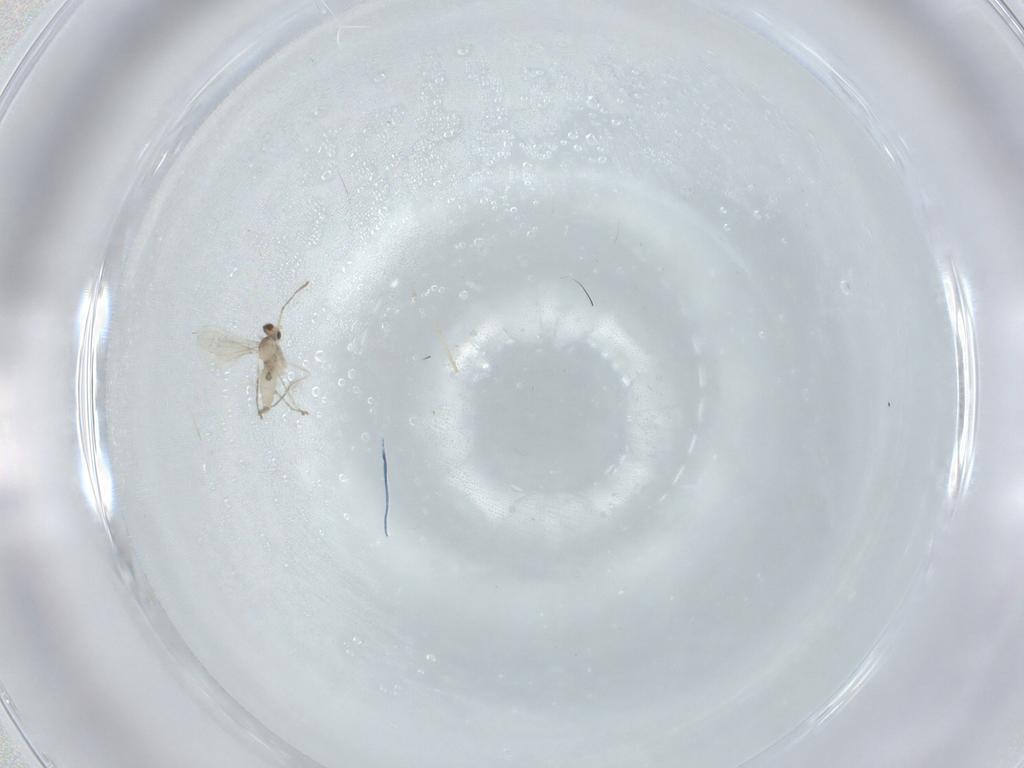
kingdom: Animalia
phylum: Arthropoda
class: Insecta
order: Diptera
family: Cecidomyiidae
